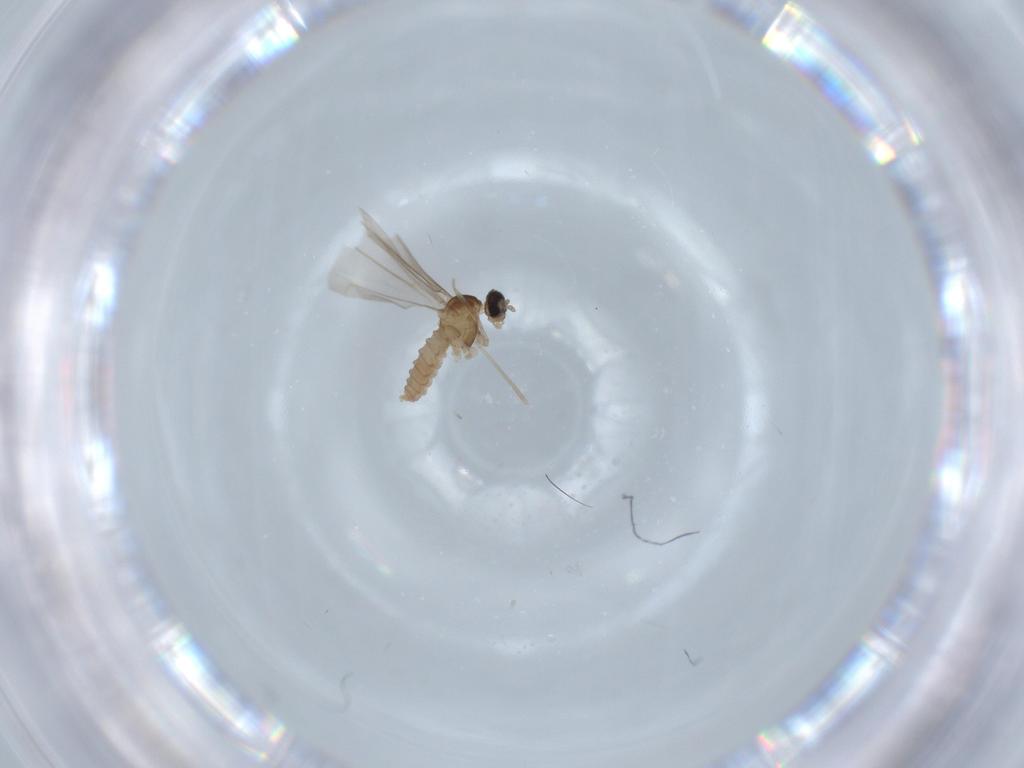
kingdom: Animalia
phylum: Arthropoda
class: Insecta
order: Diptera
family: Cecidomyiidae
